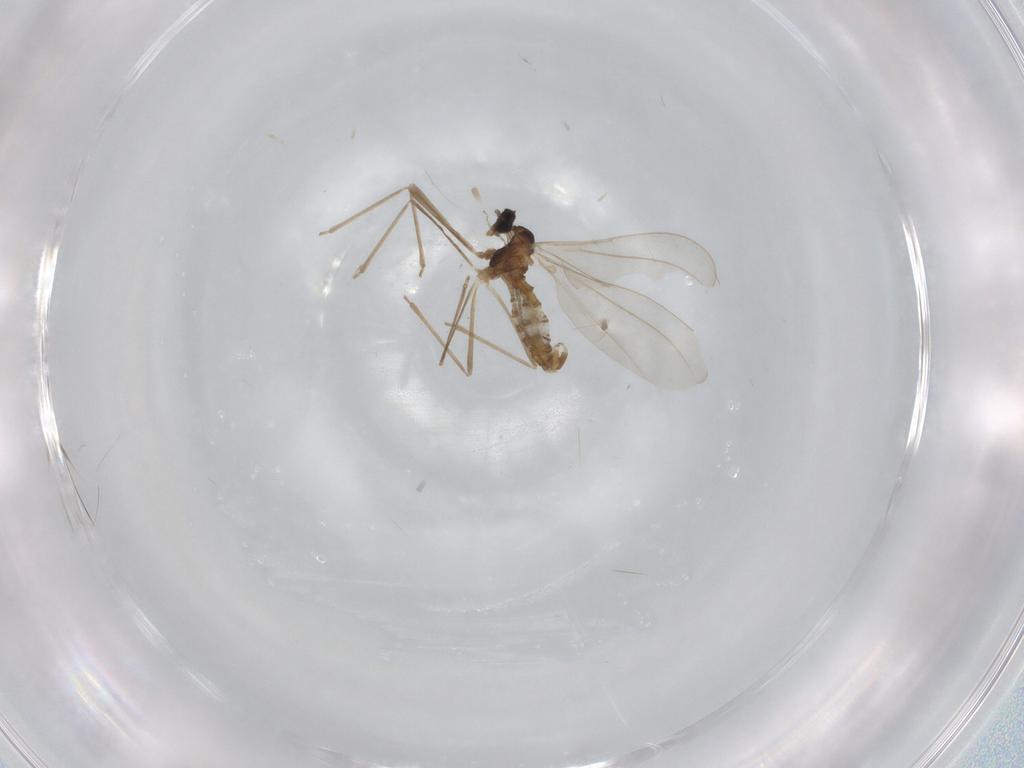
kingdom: Animalia
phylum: Arthropoda
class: Insecta
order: Diptera
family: Cecidomyiidae
